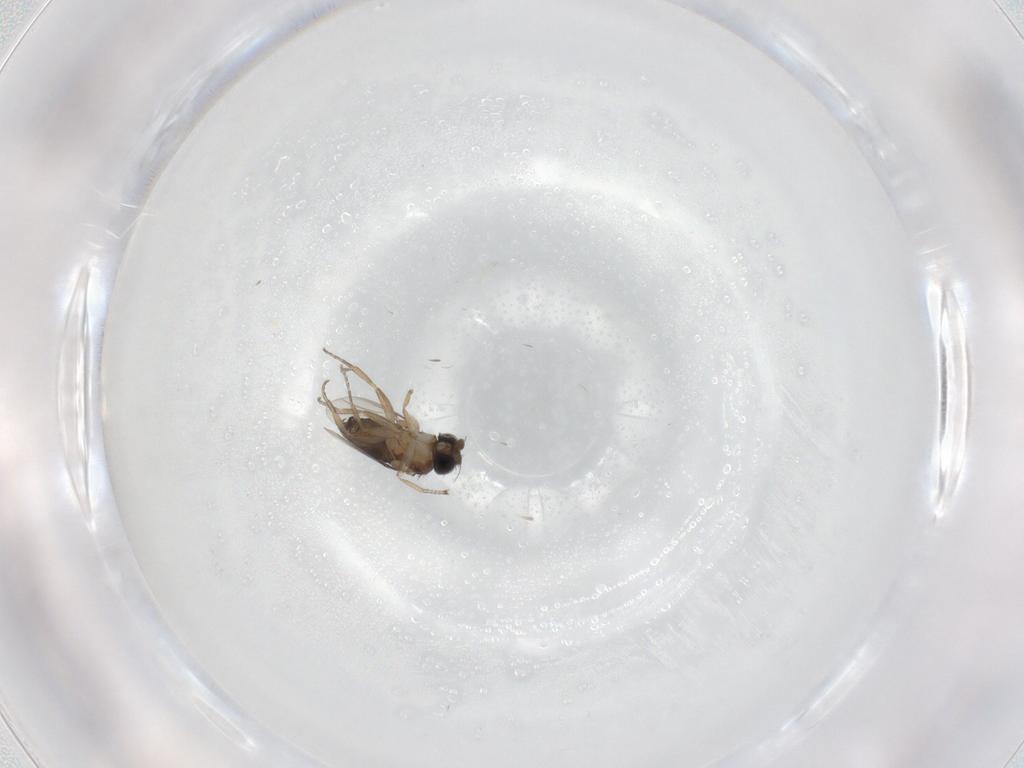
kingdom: Animalia
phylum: Arthropoda
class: Insecta
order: Diptera
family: Phoridae
